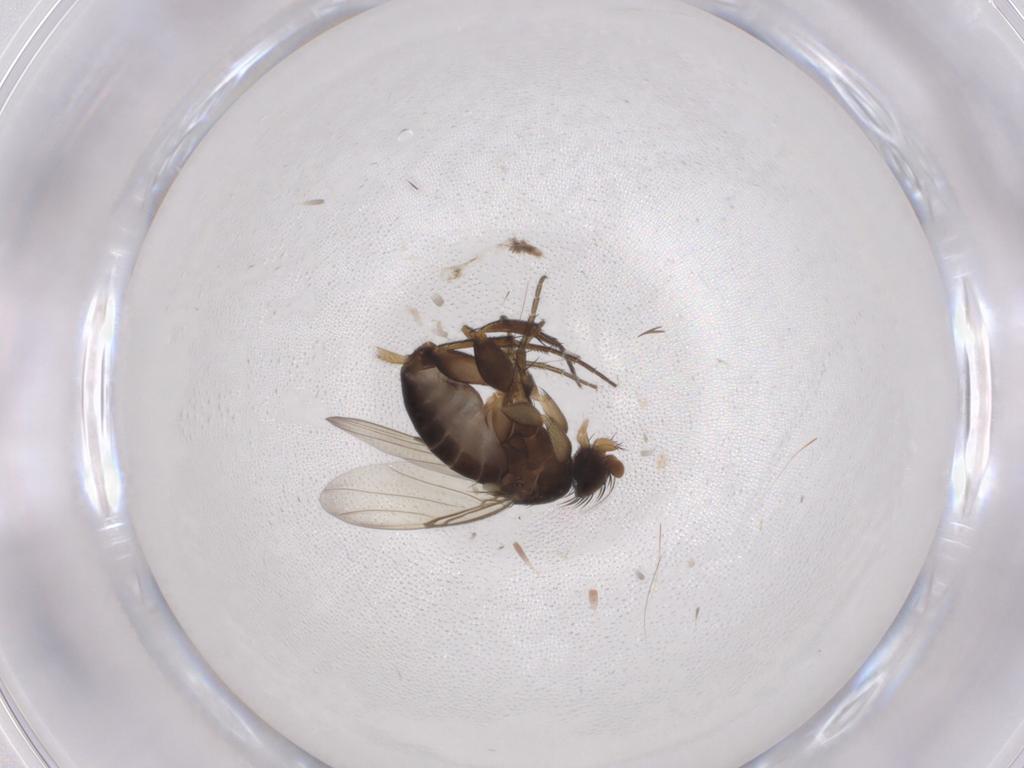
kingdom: Animalia
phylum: Arthropoda
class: Insecta
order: Diptera
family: Phoridae
